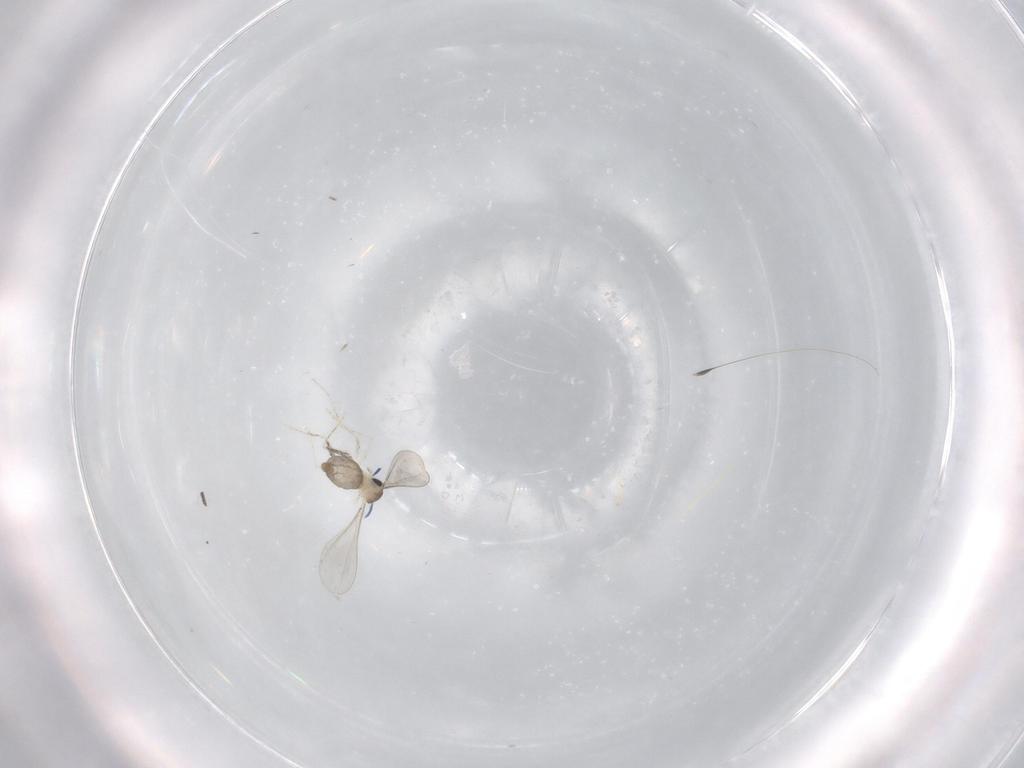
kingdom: Animalia
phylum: Arthropoda
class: Insecta
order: Diptera
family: Cecidomyiidae
